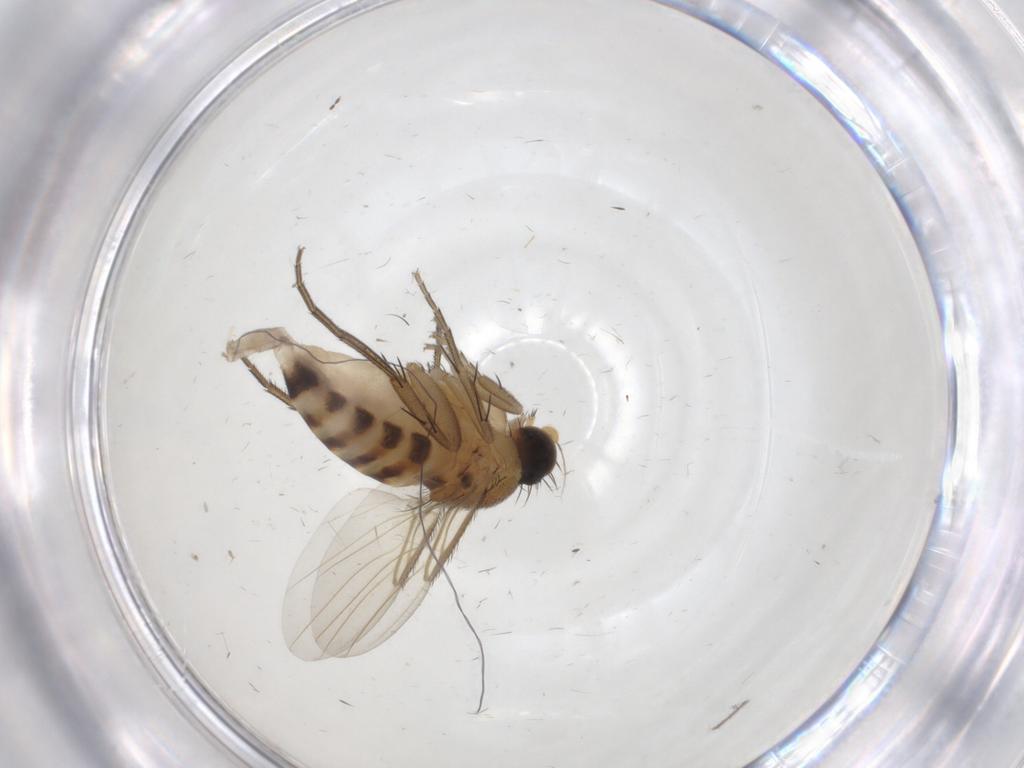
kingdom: Animalia
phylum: Arthropoda
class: Insecta
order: Diptera
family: Phoridae
